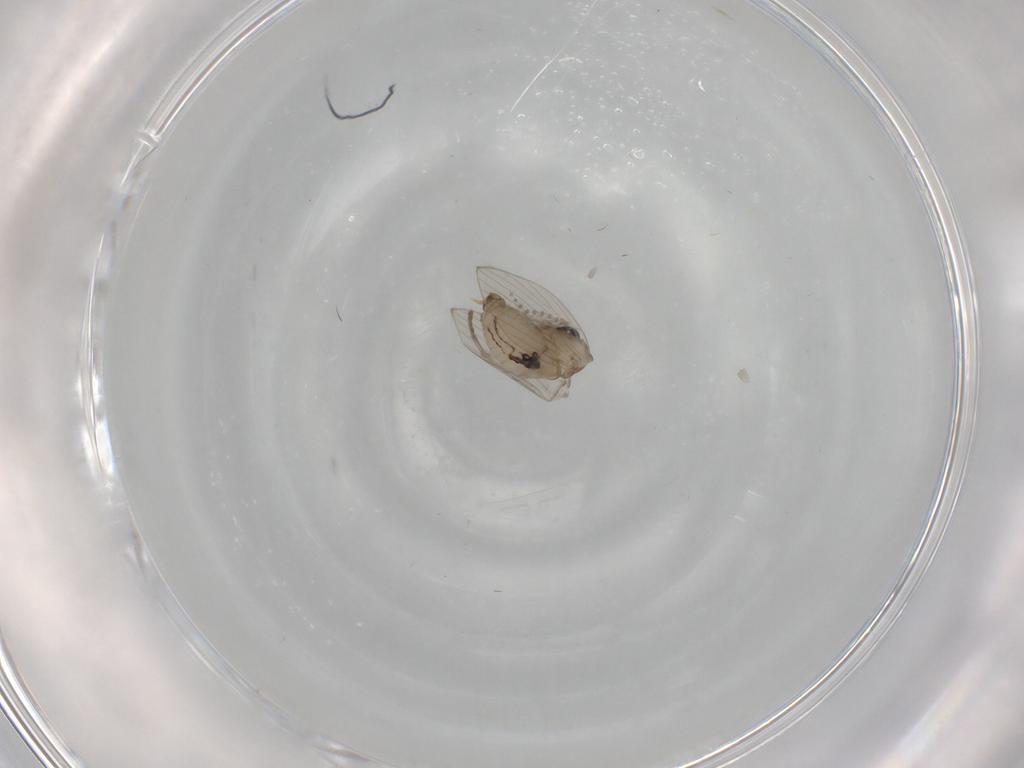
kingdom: Animalia
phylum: Arthropoda
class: Insecta
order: Diptera
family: Psychodidae
